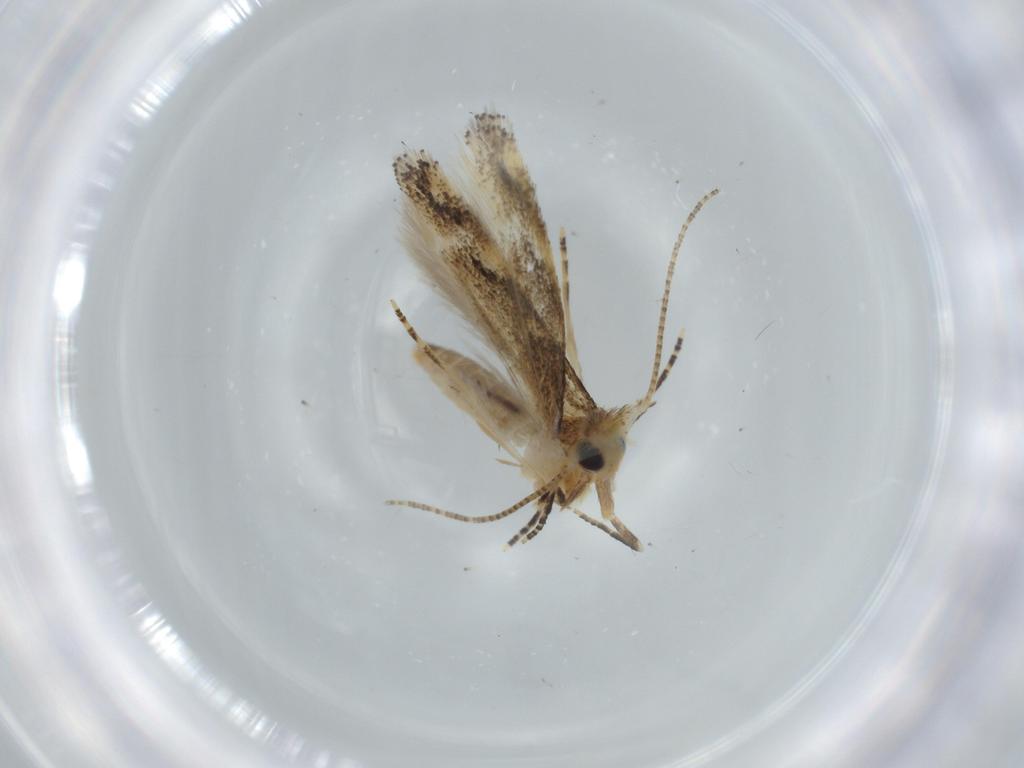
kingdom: Animalia
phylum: Arthropoda
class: Insecta
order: Lepidoptera
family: Bucculatricidae
